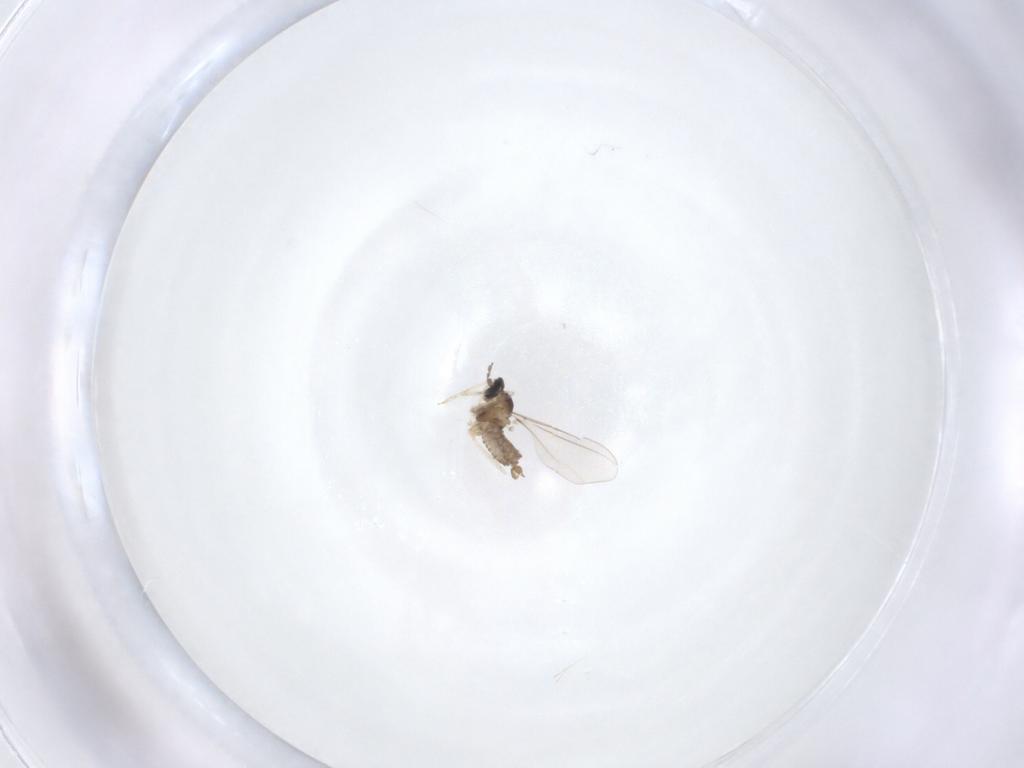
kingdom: Animalia
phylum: Arthropoda
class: Insecta
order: Diptera
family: Cecidomyiidae
